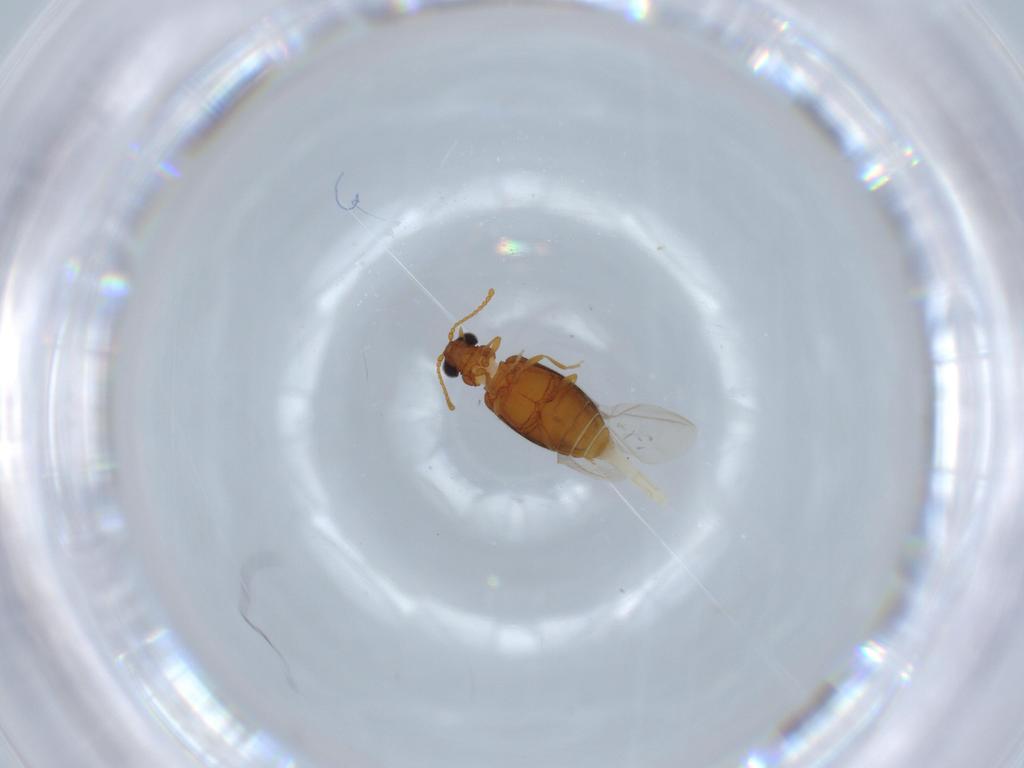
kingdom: Animalia
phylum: Arthropoda
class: Insecta
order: Coleoptera
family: Aderidae
